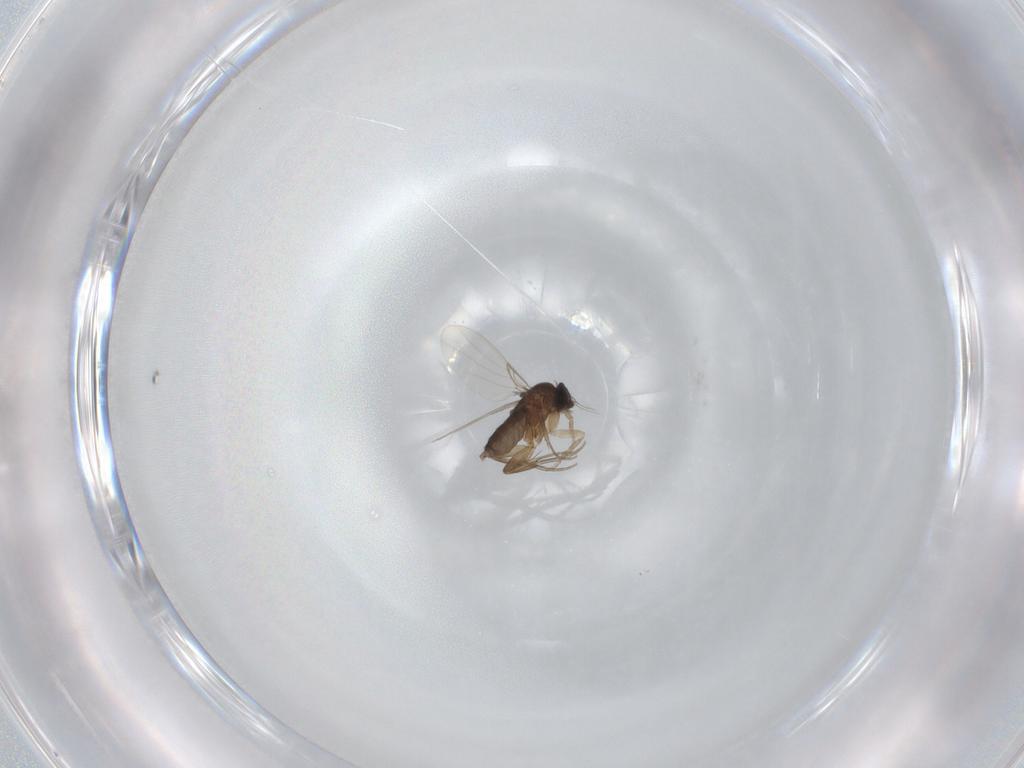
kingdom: Animalia
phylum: Arthropoda
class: Insecta
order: Diptera
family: Phoridae
